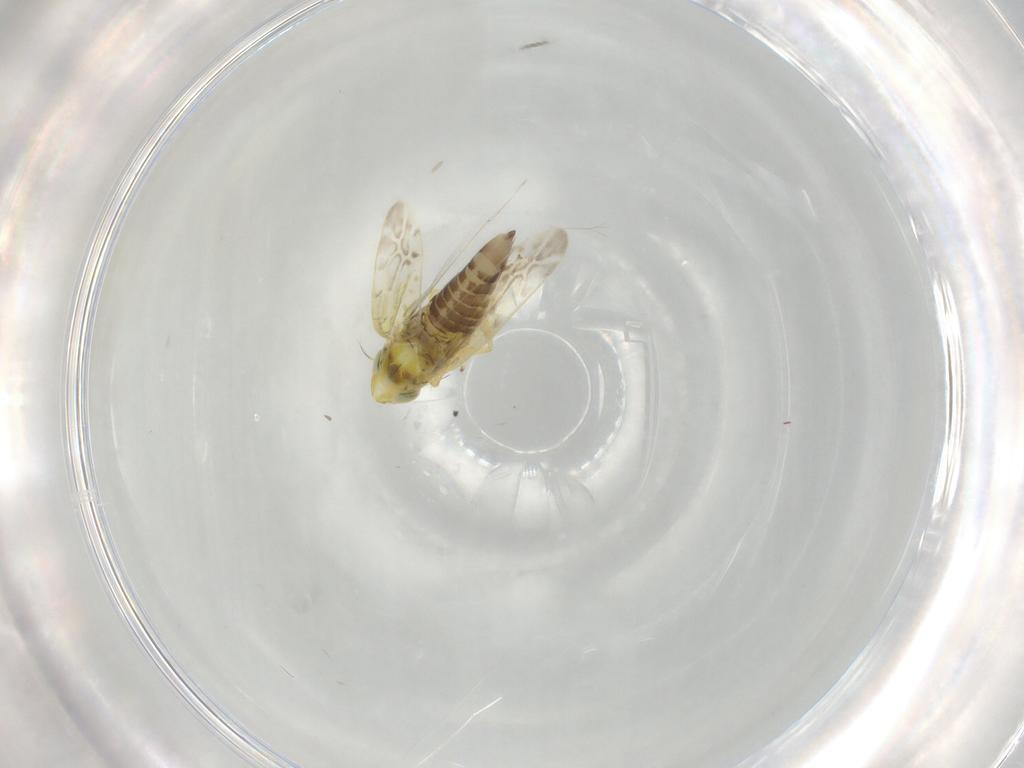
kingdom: Animalia
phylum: Arthropoda
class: Insecta
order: Hemiptera
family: Cicadellidae
